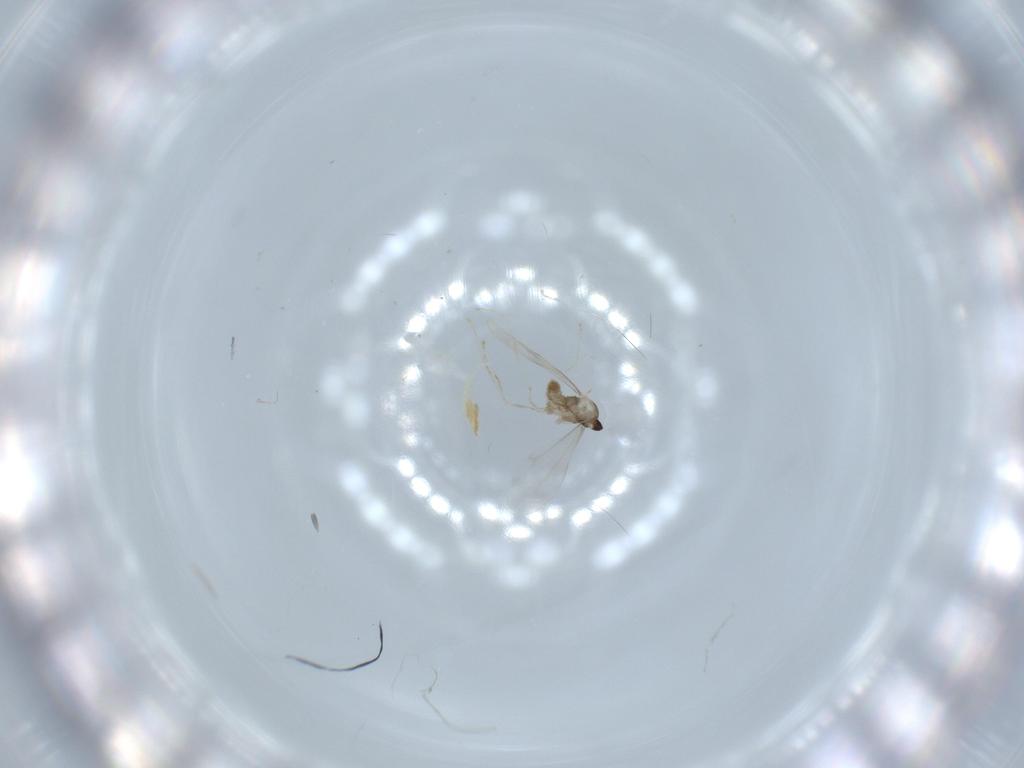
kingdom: Animalia
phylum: Arthropoda
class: Insecta
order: Diptera
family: Cecidomyiidae
